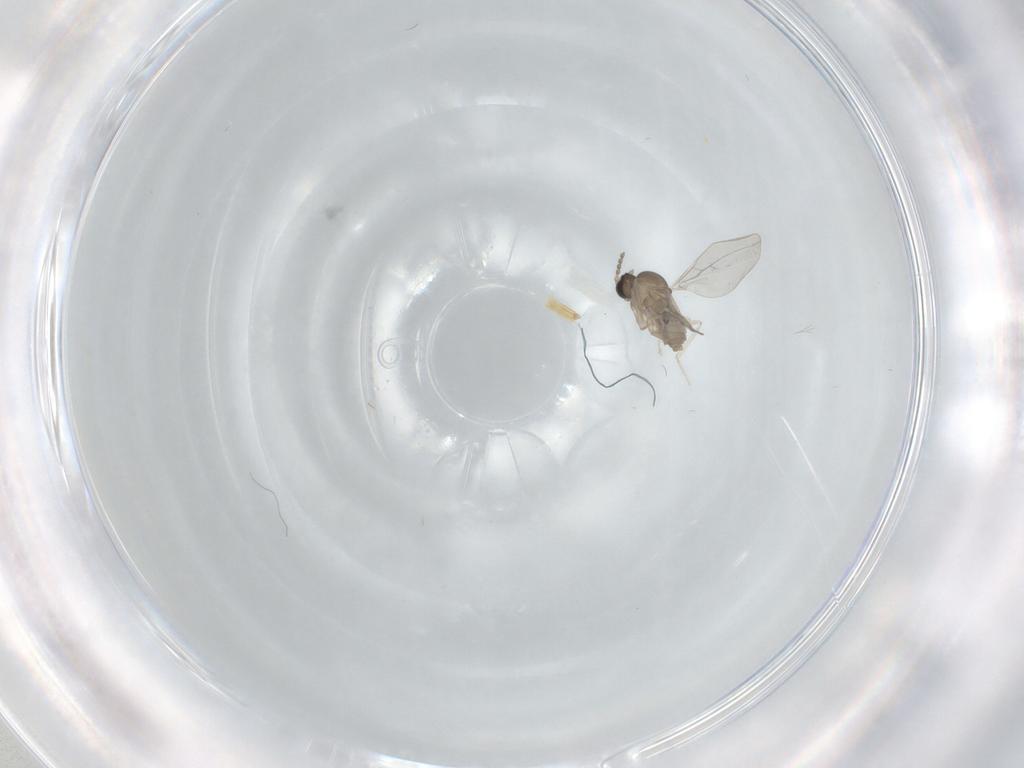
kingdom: Animalia
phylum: Arthropoda
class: Insecta
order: Diptera
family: Cecidomyiidae
